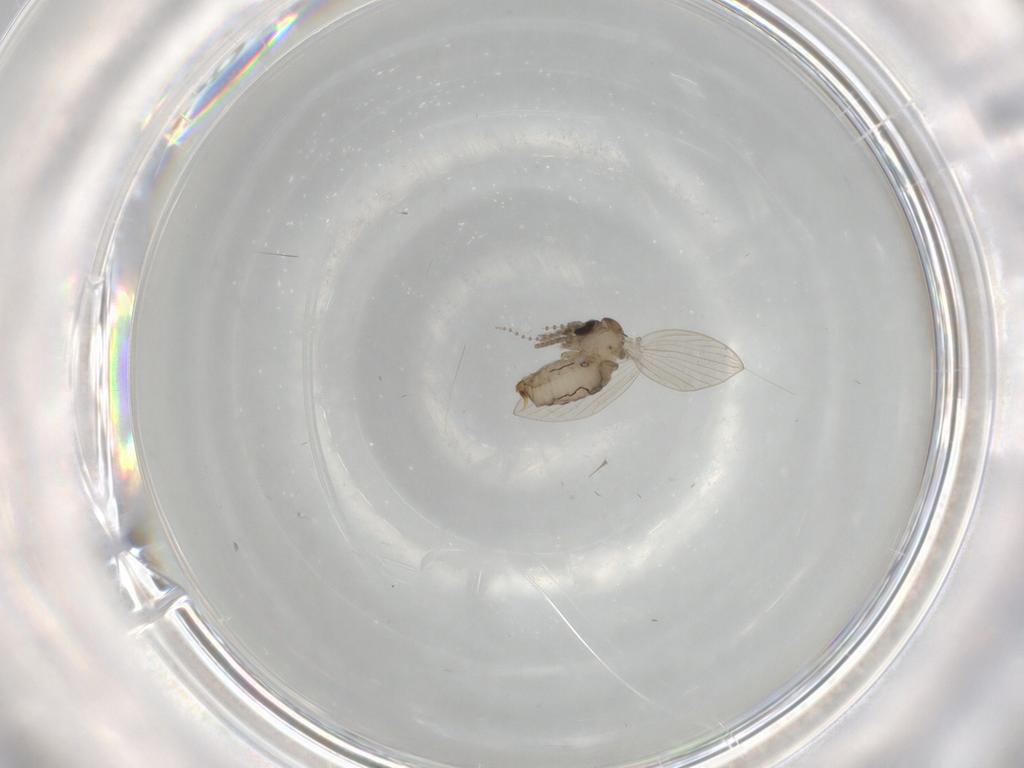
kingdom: Animalia
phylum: Arthropoda
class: Insecta
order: Diptera
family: Psychodidae
